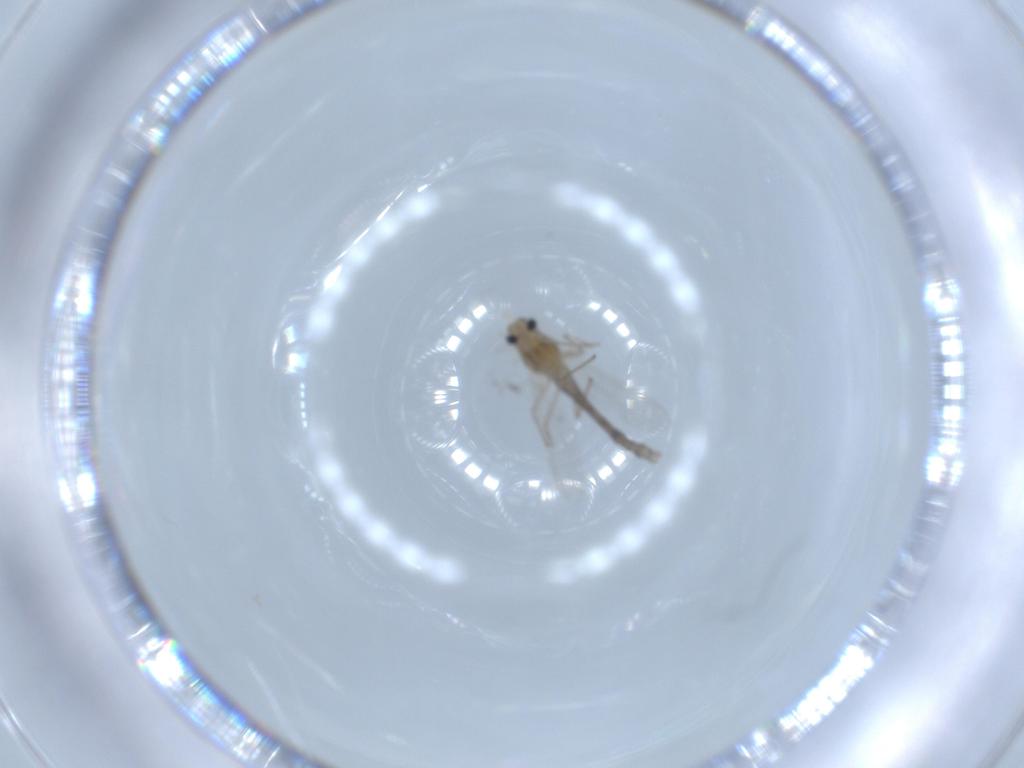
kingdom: Animalia
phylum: Arthropoda
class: Insecta
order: Diptera
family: Chironomidae
